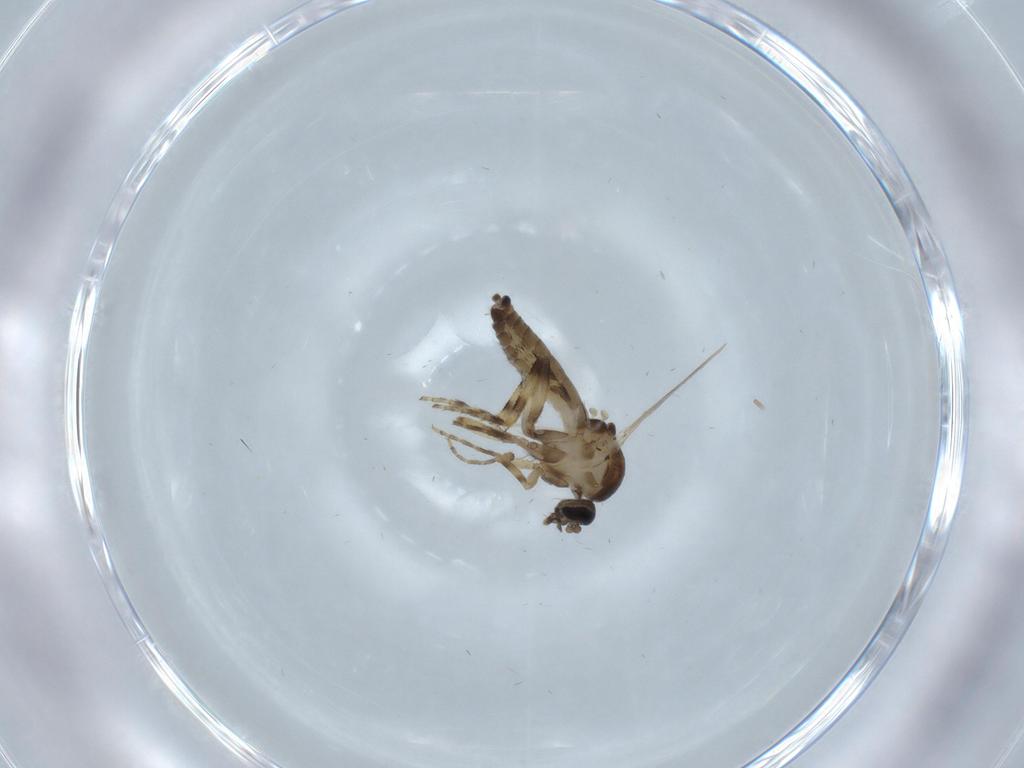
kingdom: Animalia
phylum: Arthropoda
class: Insecta
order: Diptera
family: Ceratopogonidae
